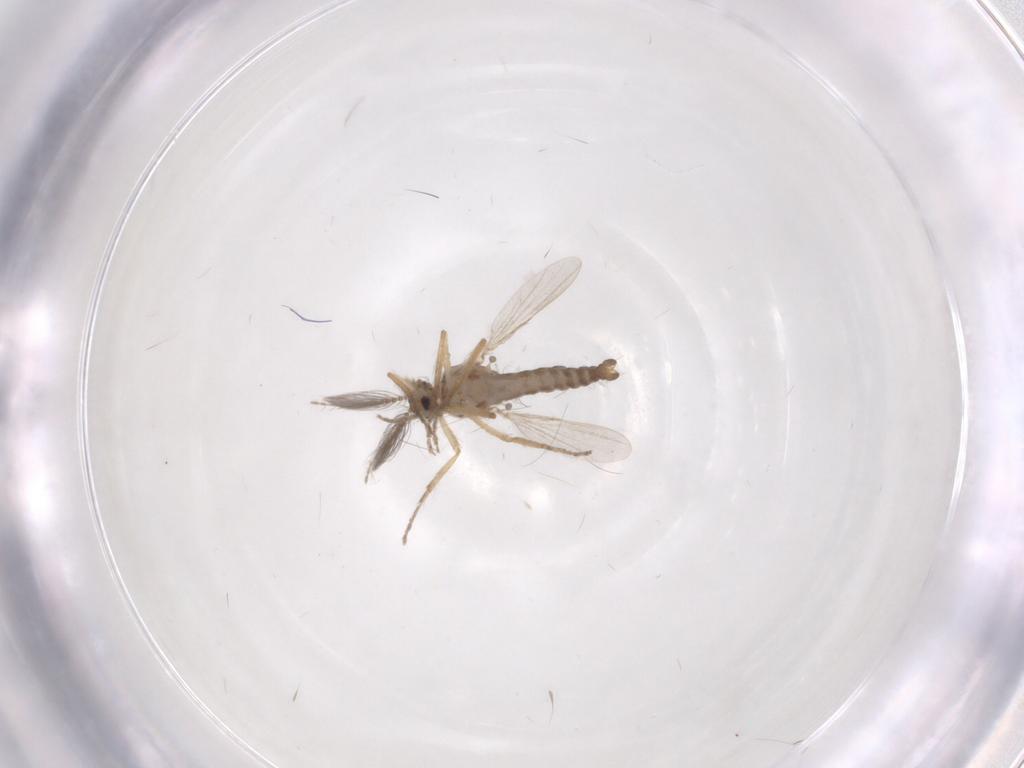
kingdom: Animalia
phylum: Arthropoda
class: Insecta
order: Diptera
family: Ceratopogonidae
